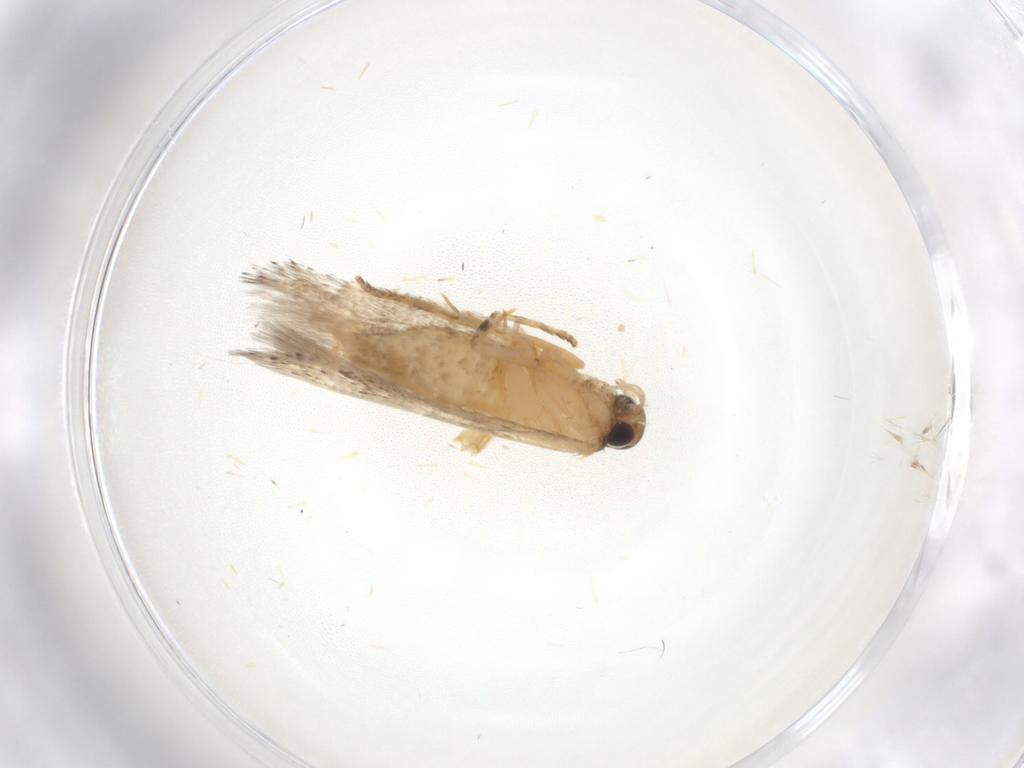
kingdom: Animalia
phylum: Arthropoda
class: Insecta
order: Lepidoptera
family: Gelechiidae
